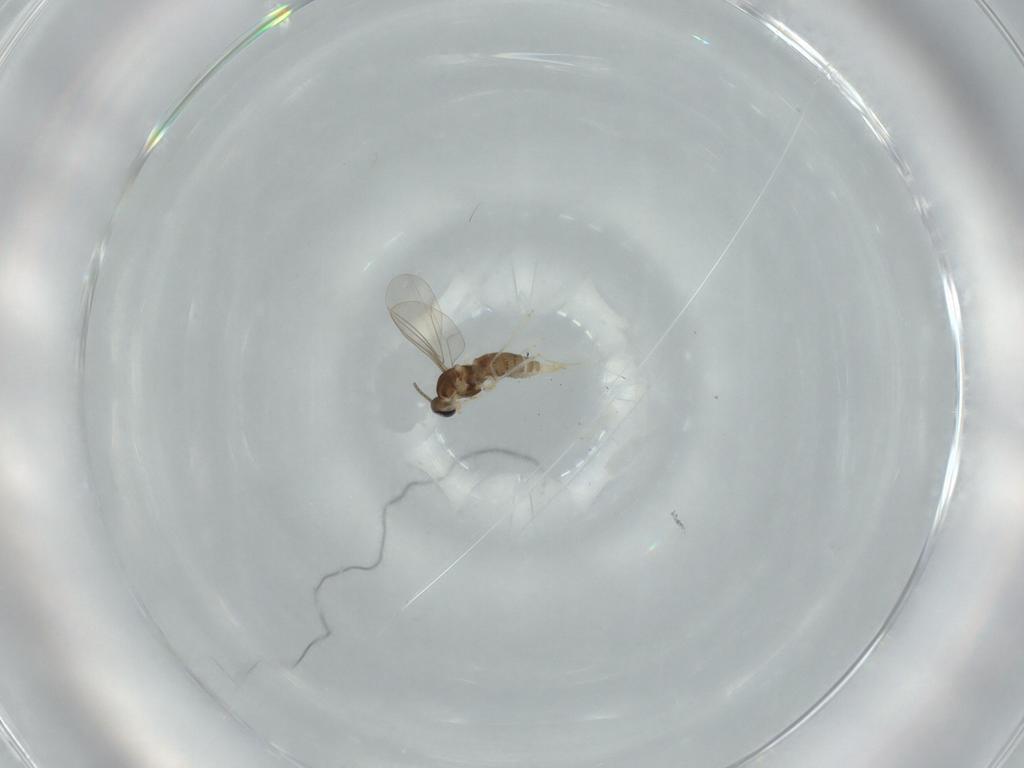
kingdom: Animalia
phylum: Arthropoda
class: Insecta
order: Diptera
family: Cecidomyiidae
